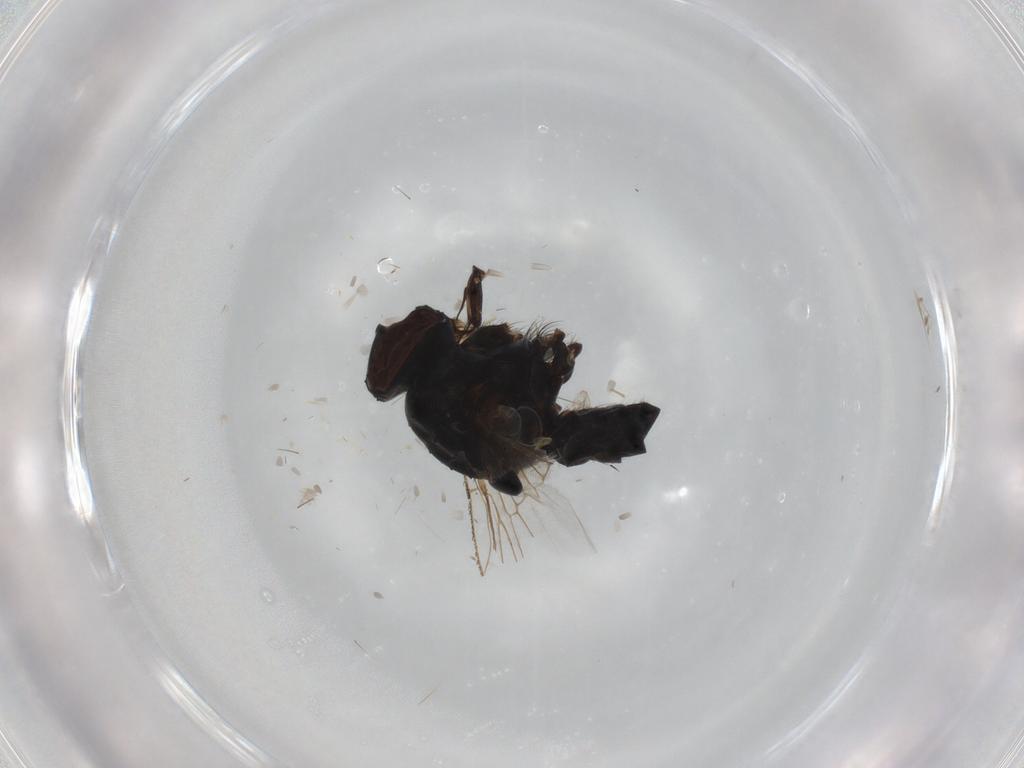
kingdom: Animalia
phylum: Arthropoda
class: Insecta
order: Diptera
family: Muscidae
